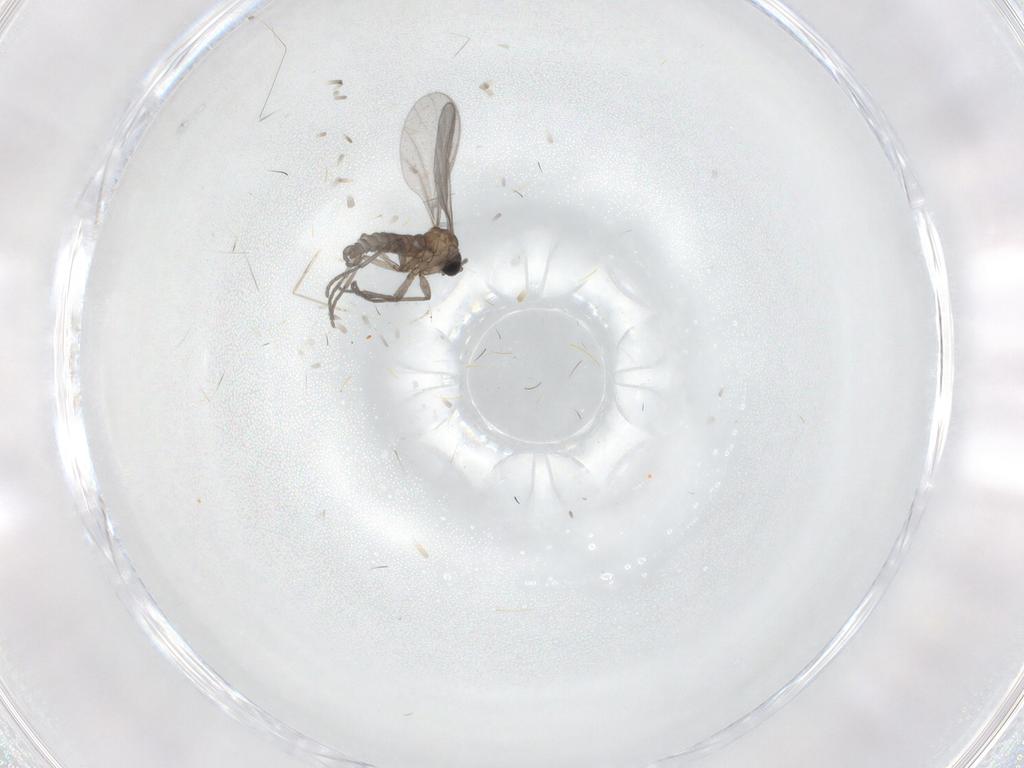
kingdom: Animalia
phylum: Arthropoda
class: Insecta
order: Diptera
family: Sciaridae
